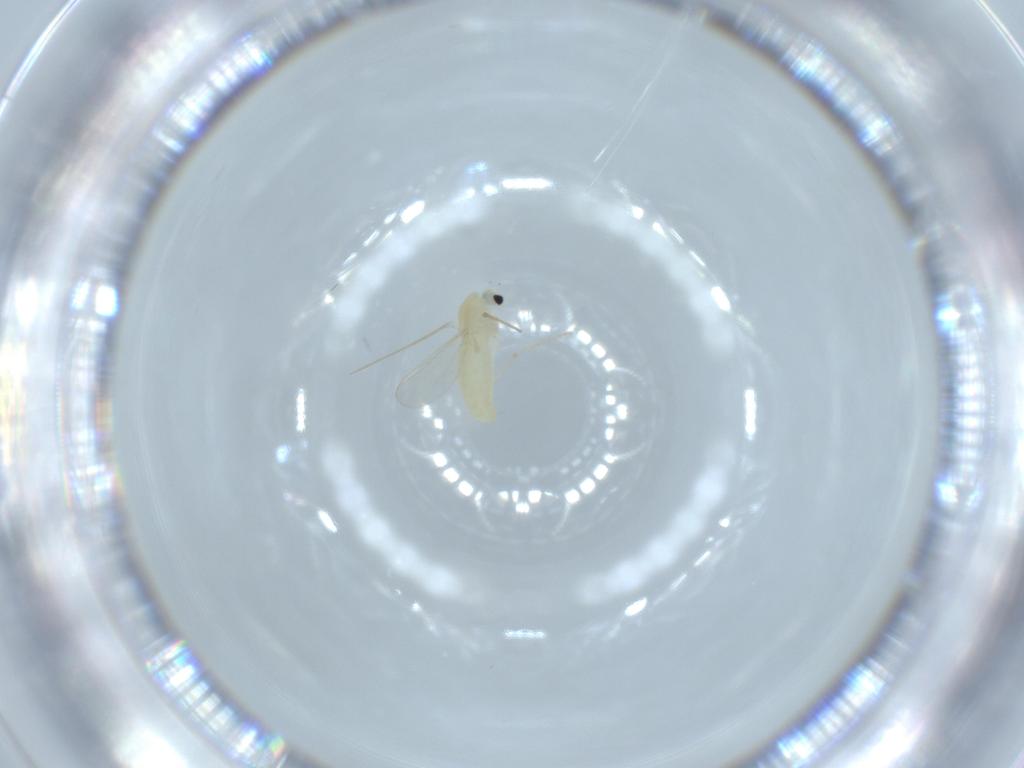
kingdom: Animalia
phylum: Arthropoda
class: Insecta
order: Diptera
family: Chironomidae
